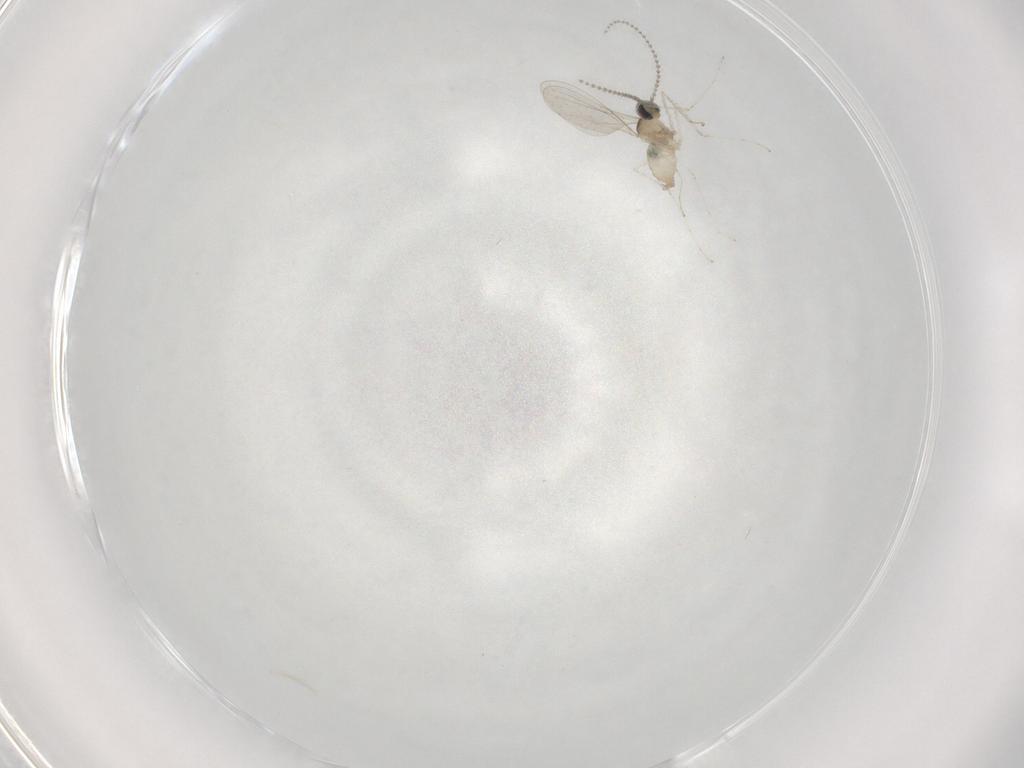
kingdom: Animalia
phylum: Arthropoda
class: Insecta
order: Diptera
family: Cecidomyiidae
